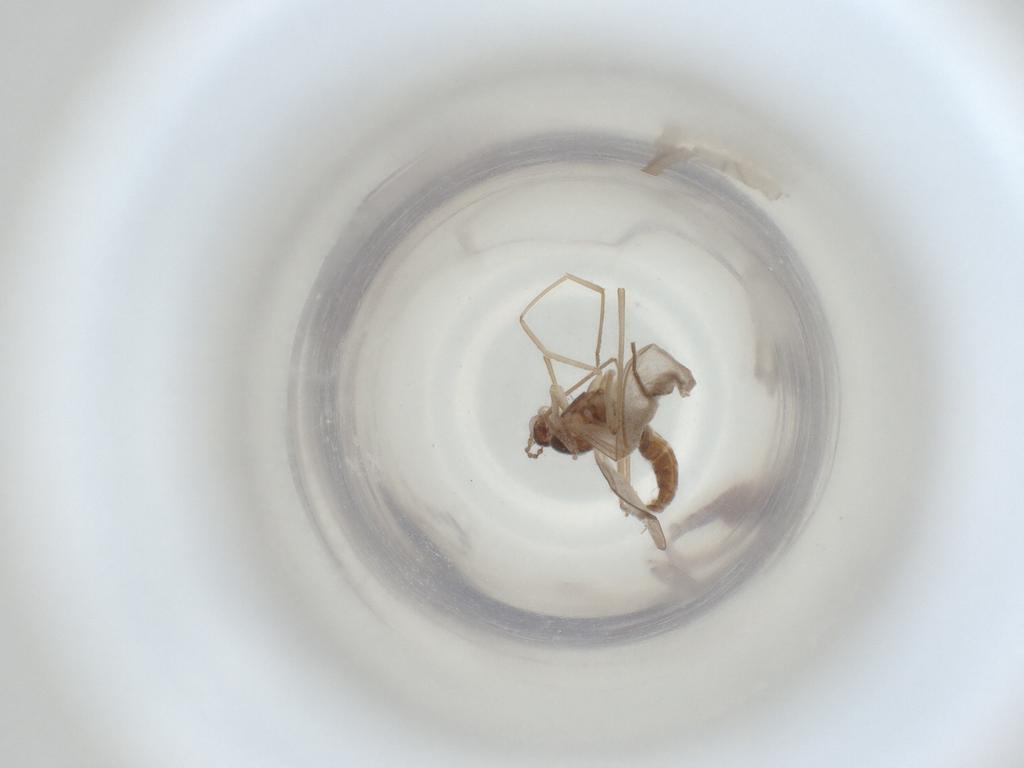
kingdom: Animalia
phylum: Arthropoda
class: Insecta
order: Diptera
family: Cecidomyiidae
